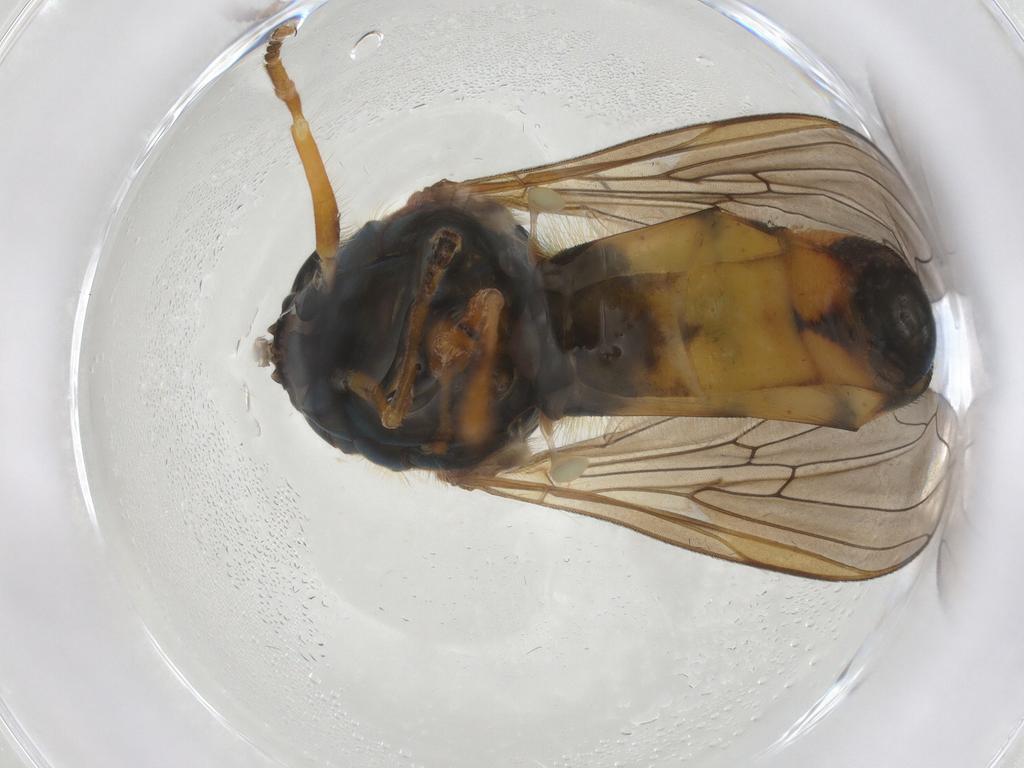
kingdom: Animalia
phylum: Arthropoda
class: Insecta
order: Diptera
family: Syrphidae
